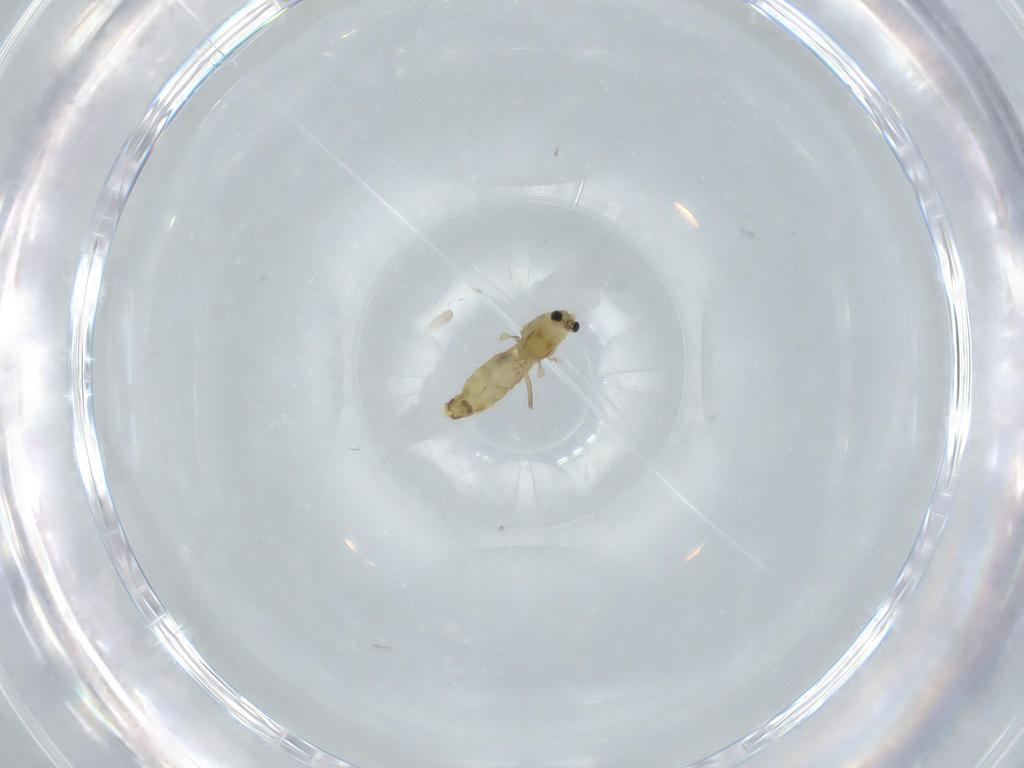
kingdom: Animalia
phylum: Arthropoda
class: Insecta
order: Diptera
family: Chironomidae
